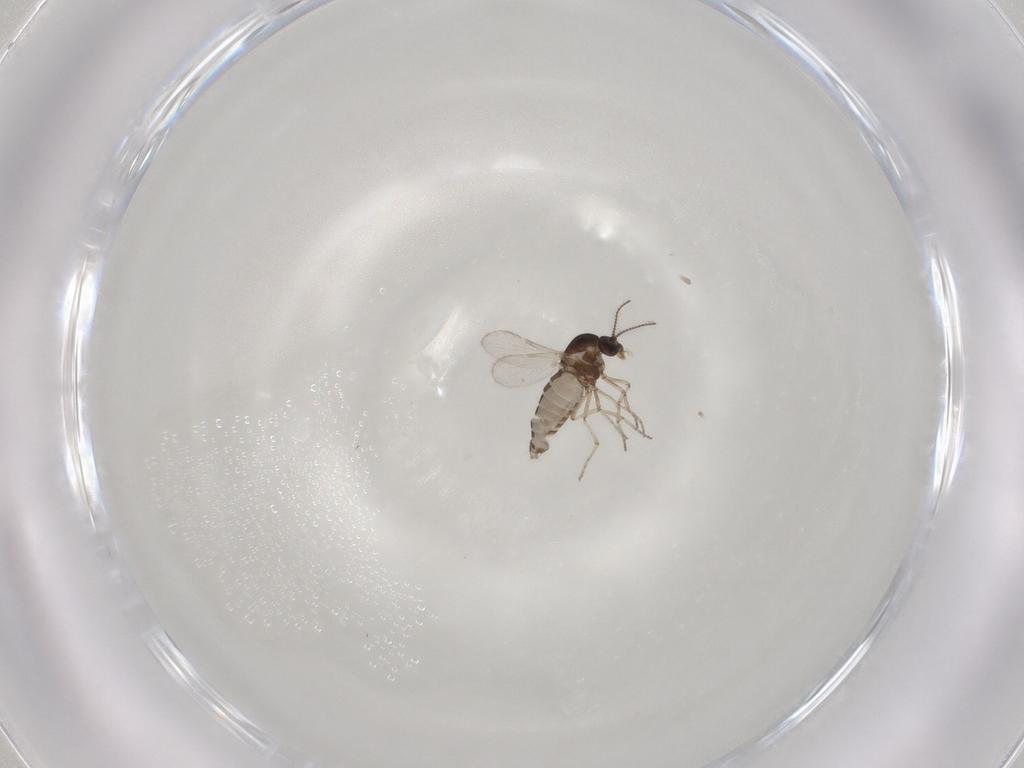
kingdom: Animalia
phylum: Arthropoda
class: Insecta
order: Diptera
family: Ceratopogonidae
